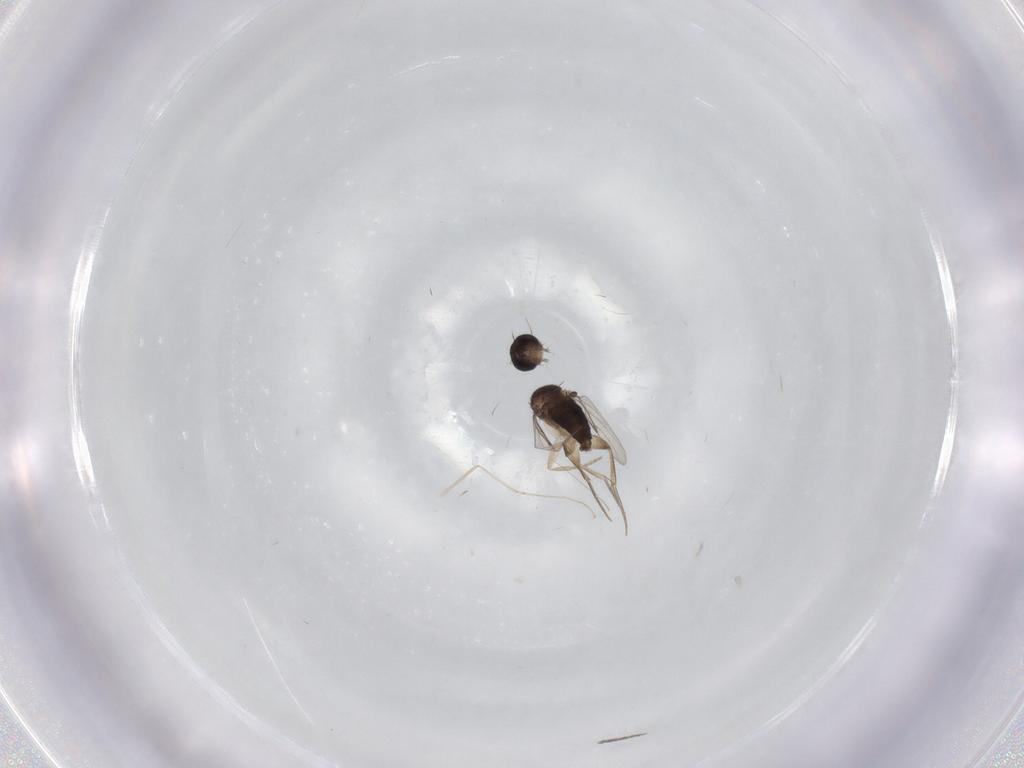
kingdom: Animalia
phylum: Arthropoda
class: Insecta
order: Diptera
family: Sphaeroceridae
